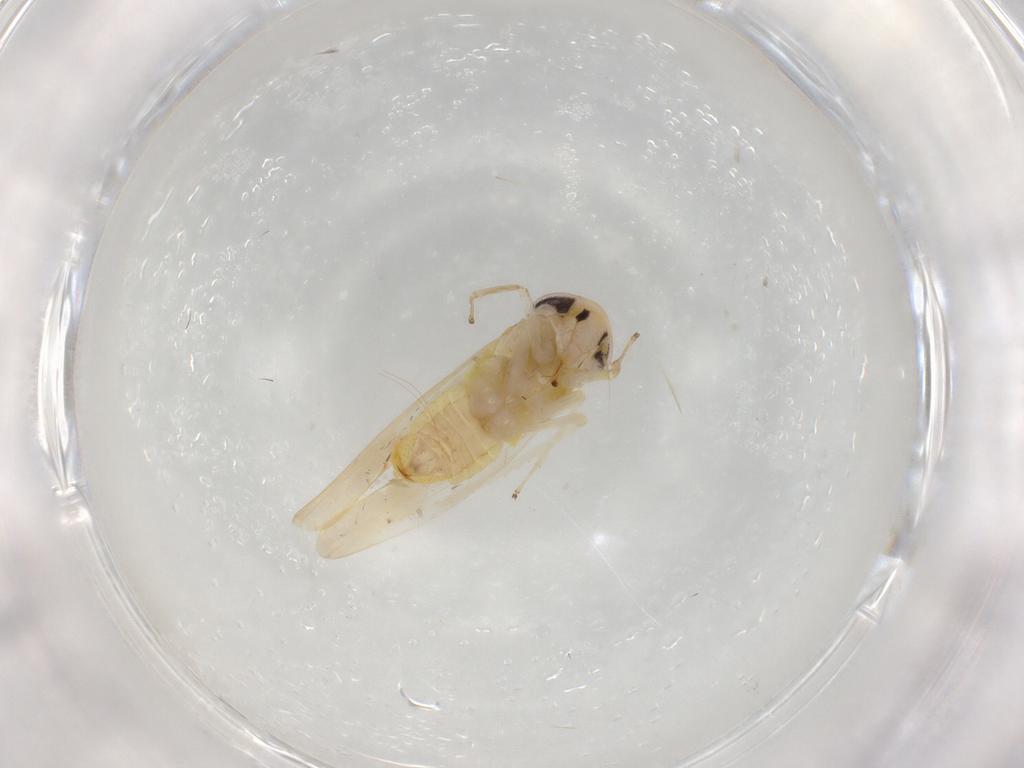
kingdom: Animalia
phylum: Arthropoda
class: Insecta
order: Hemiptera
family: Cicadellidae
